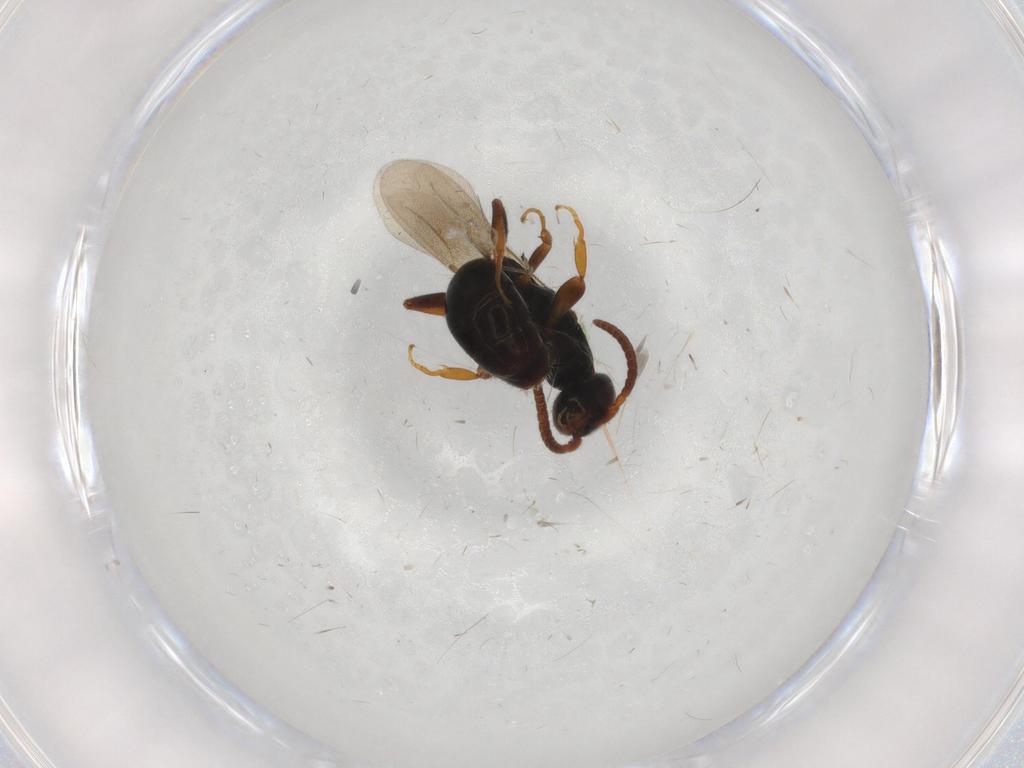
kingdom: Animalia
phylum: Arthropoda
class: Insecta
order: Hymenoptera
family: Bethylidae
